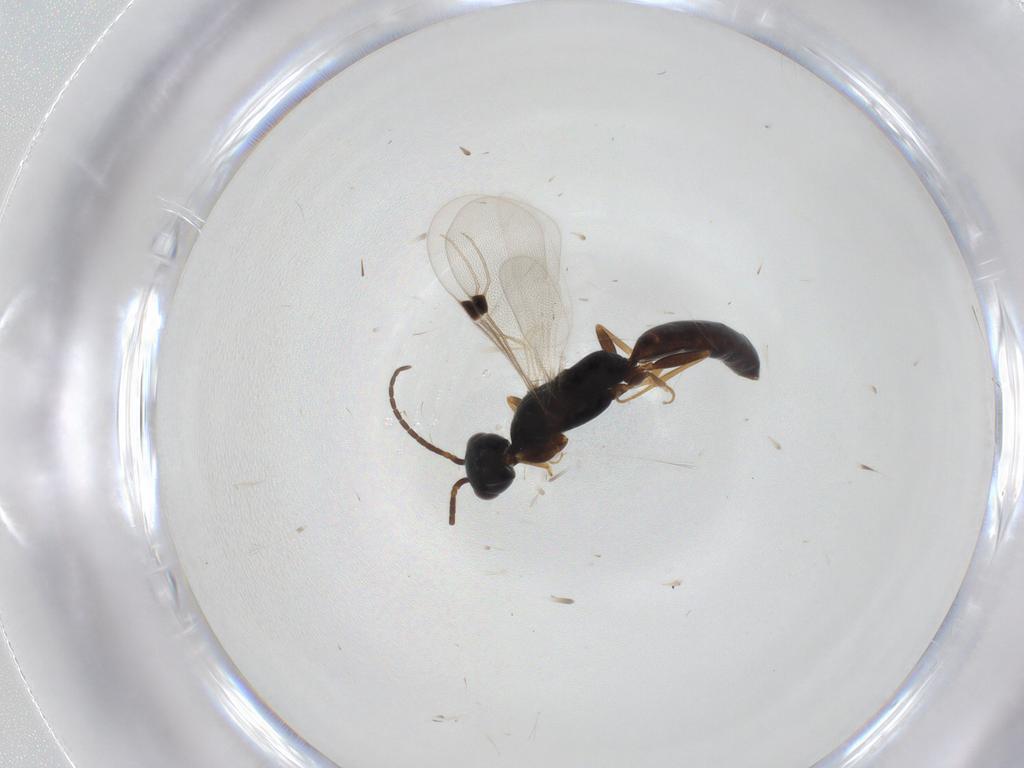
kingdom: Animalia
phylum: Arthropoda
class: Insecta
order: Hymenoptera
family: Bethylidae
